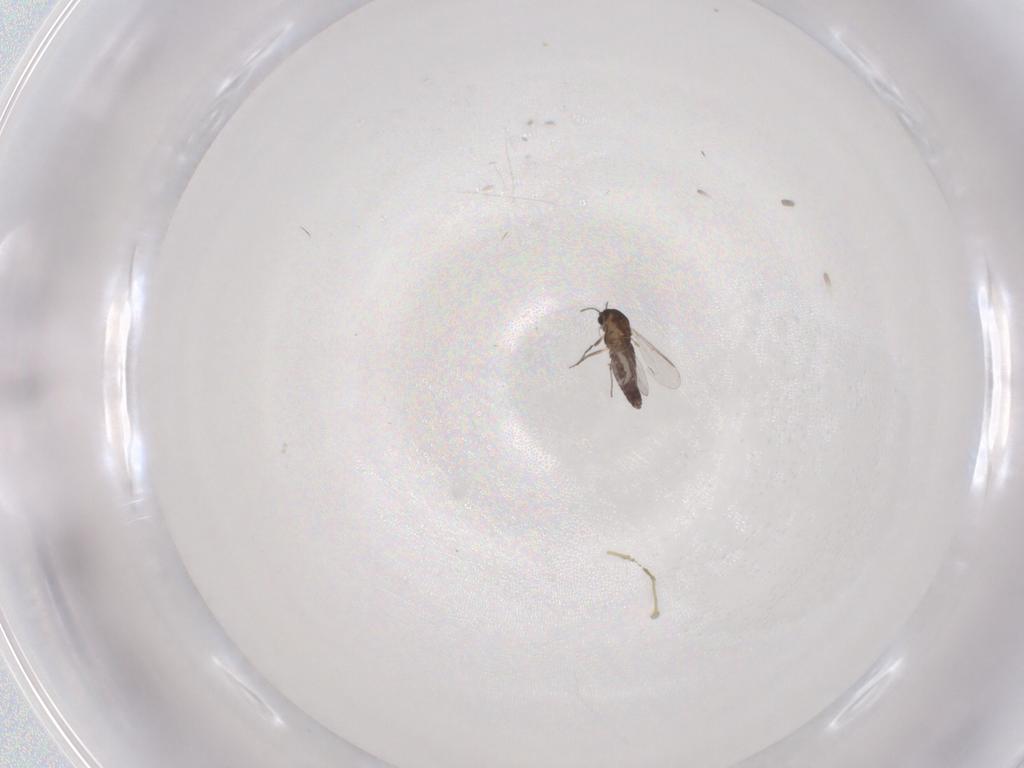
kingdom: Animalia
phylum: Arthropoda
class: Insecta
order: Diptera
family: Chironomidae
